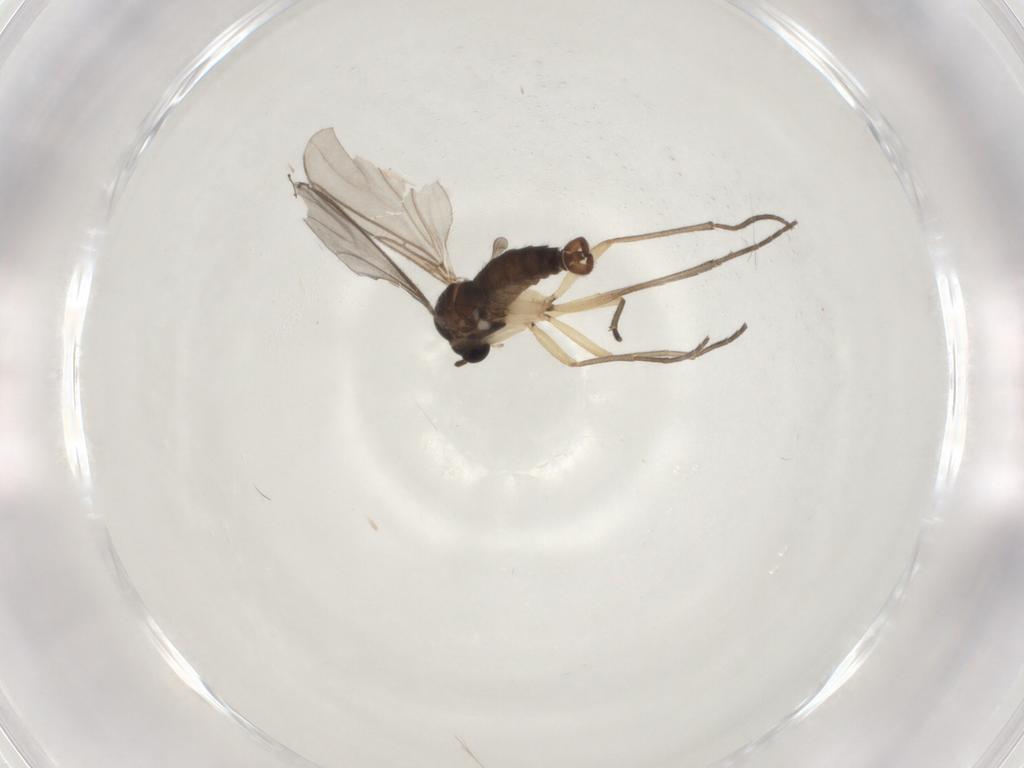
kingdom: Animalia
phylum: Arthropoda
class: Insecta
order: Diptera
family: Sciaridae
